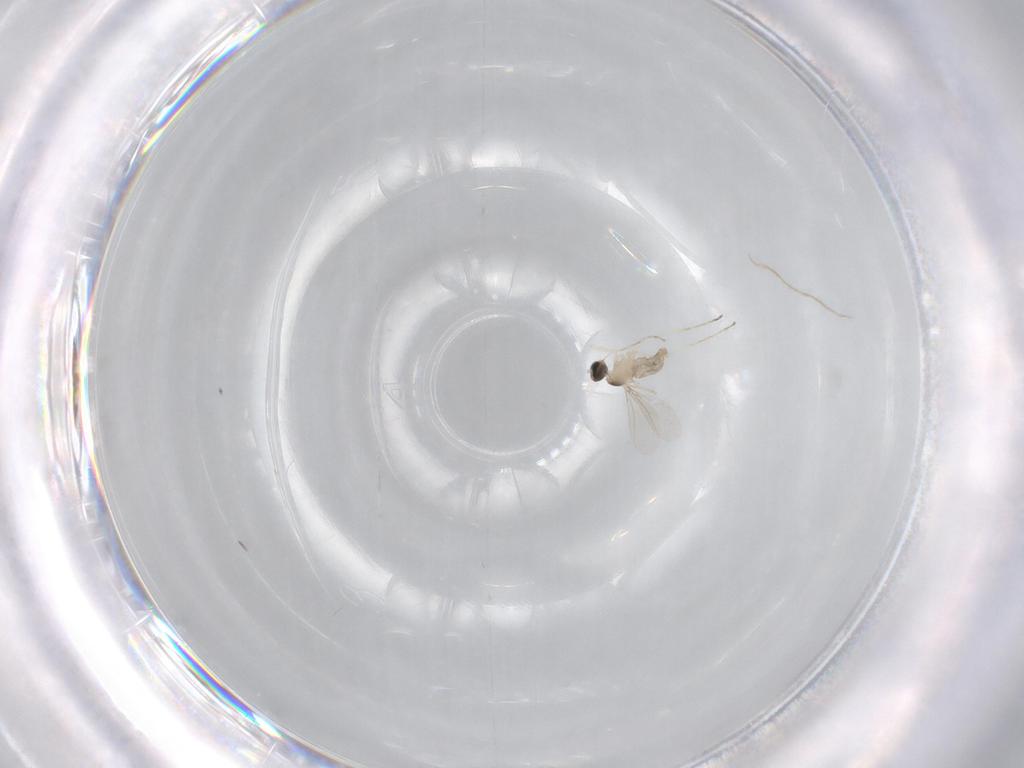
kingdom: Animalia
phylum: Arthropoda
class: Insecta
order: Diptera
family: Cecidomyiidae
